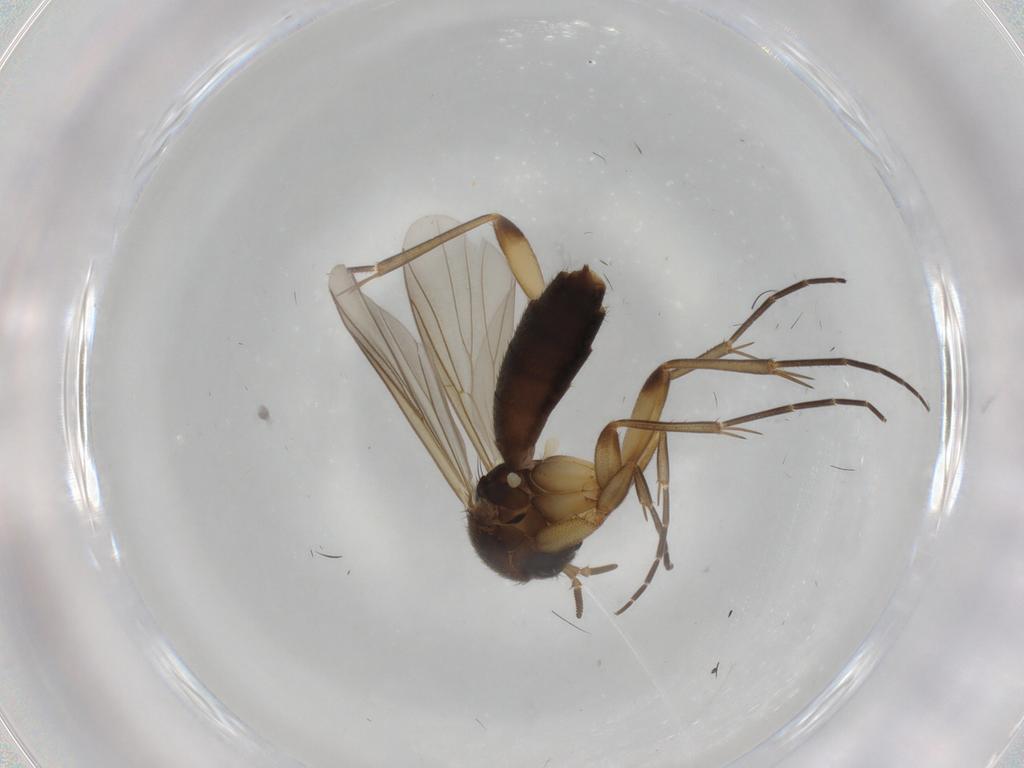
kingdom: Animalia
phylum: Arthropoda
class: Insecta
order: Diptera
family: Mycetophilidae
